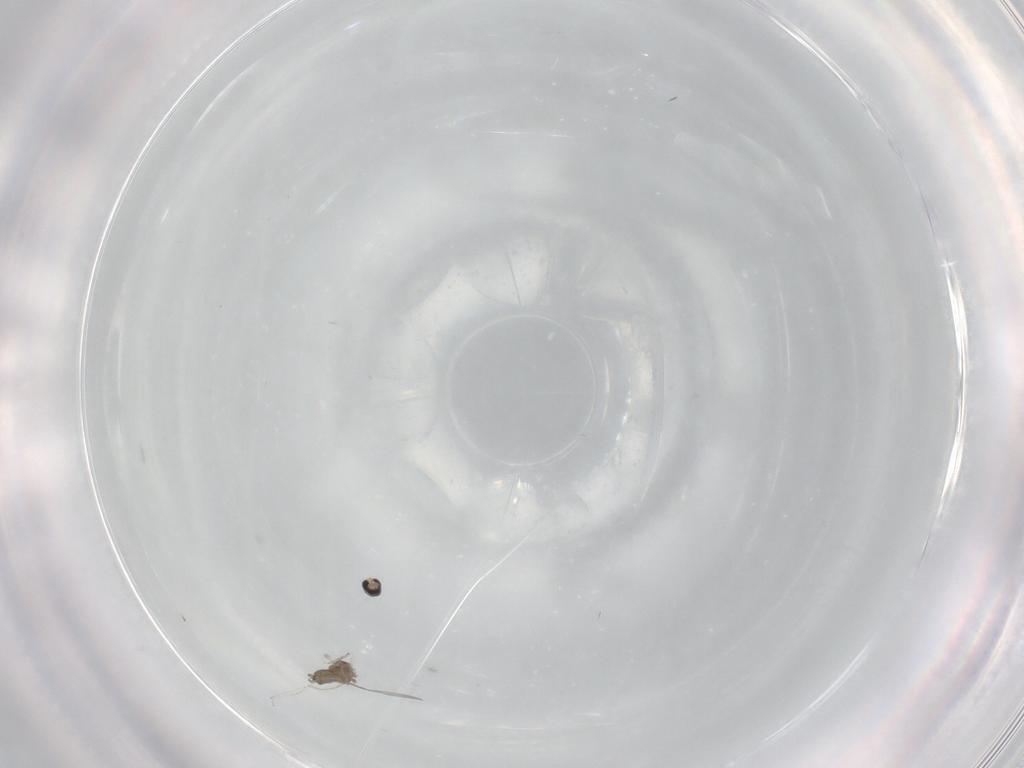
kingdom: Animalia
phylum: Arthropoda
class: Insecta
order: Diptera
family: Cecidomyiidae
